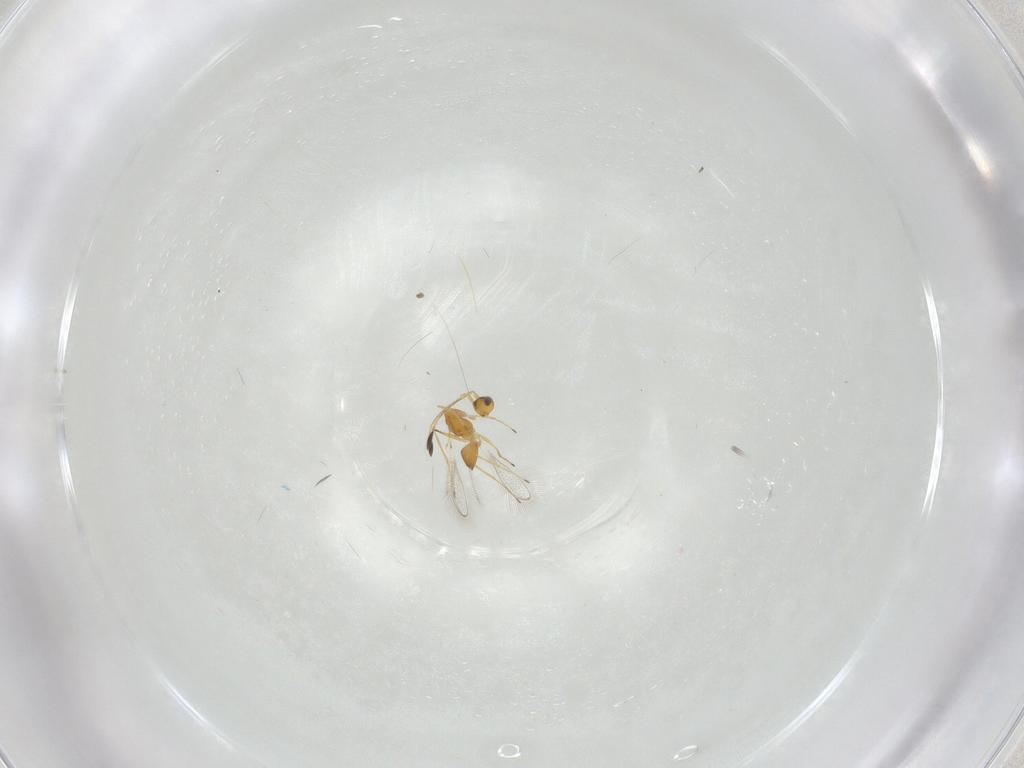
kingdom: Animalia
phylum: Arthropoda
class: Insecta
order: Hymenoptera
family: Mymaridae
